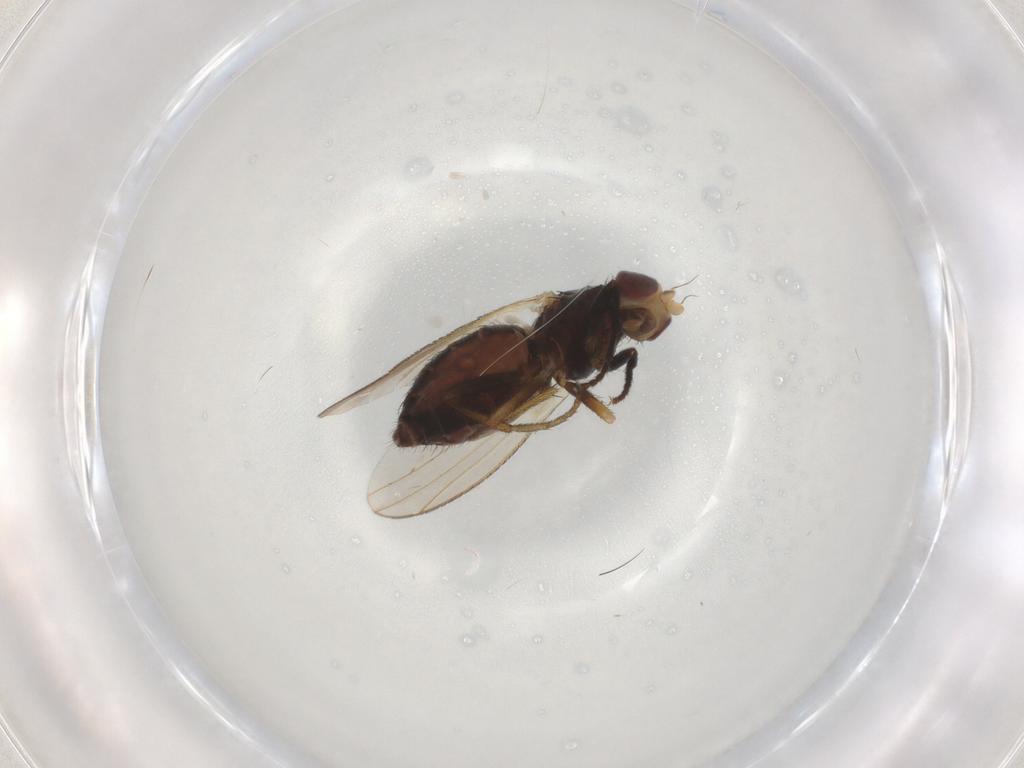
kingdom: Animalia
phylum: Arthropoda
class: Insecta
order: Diptera
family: Heleomyzidae
